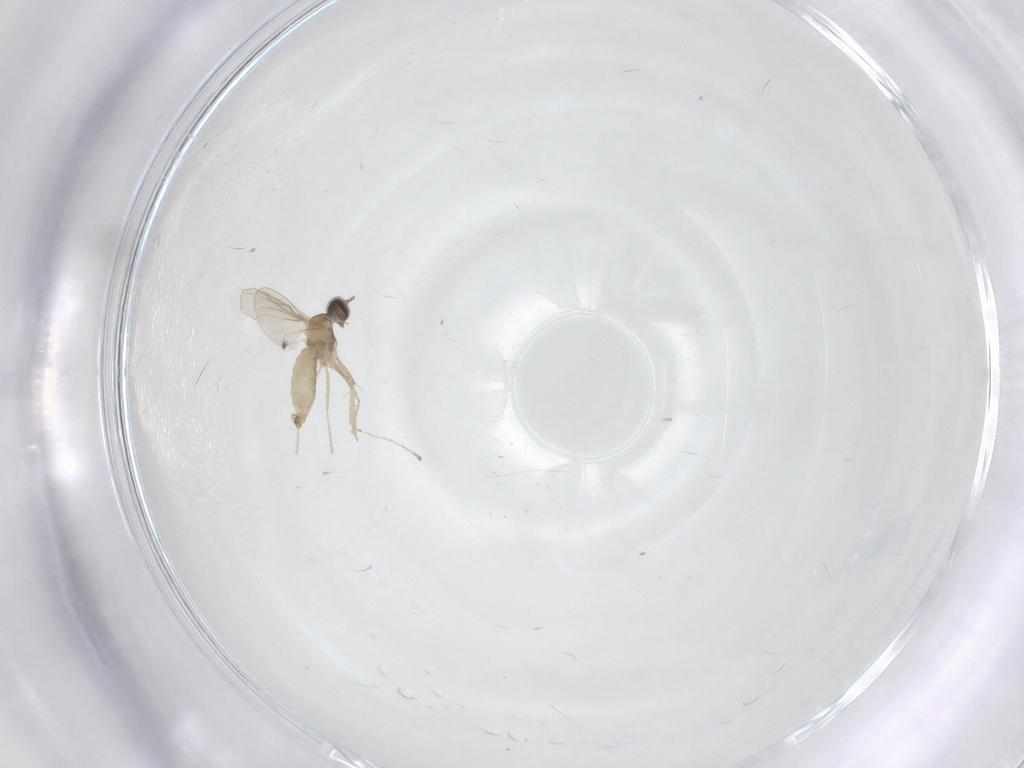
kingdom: Animalia
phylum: Arthropoda
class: Insecta
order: Diptera
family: Cecidomyiidae
